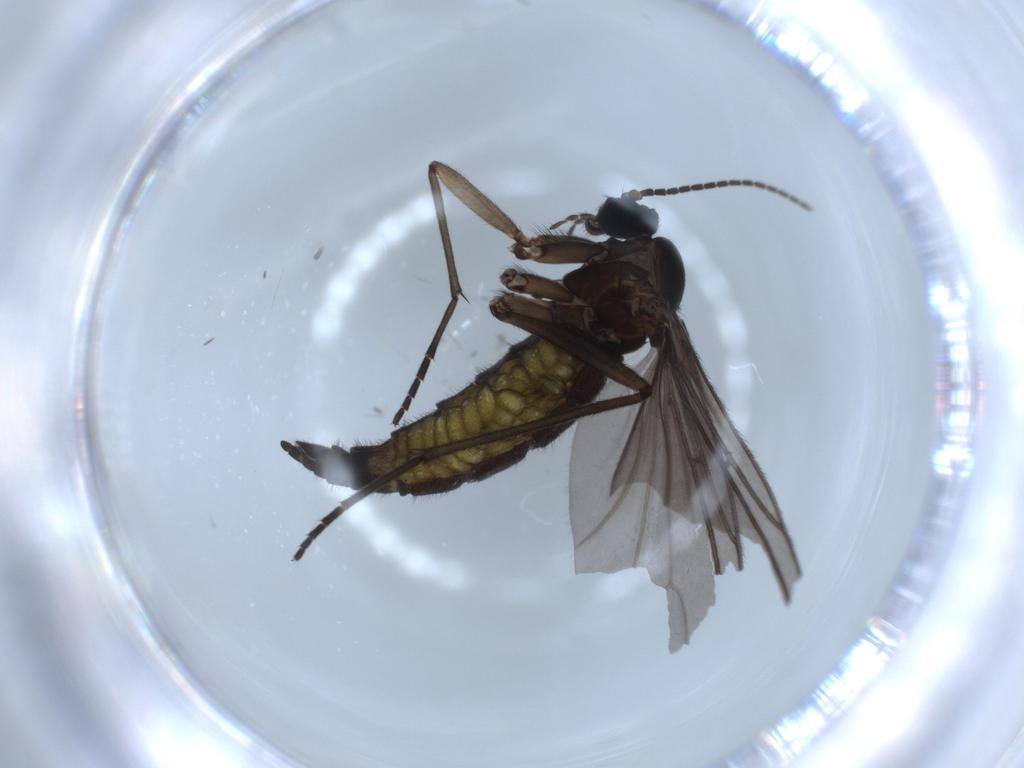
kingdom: Animalia
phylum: Arthropoda
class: Insecta
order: Diptera
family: Sciaridae
